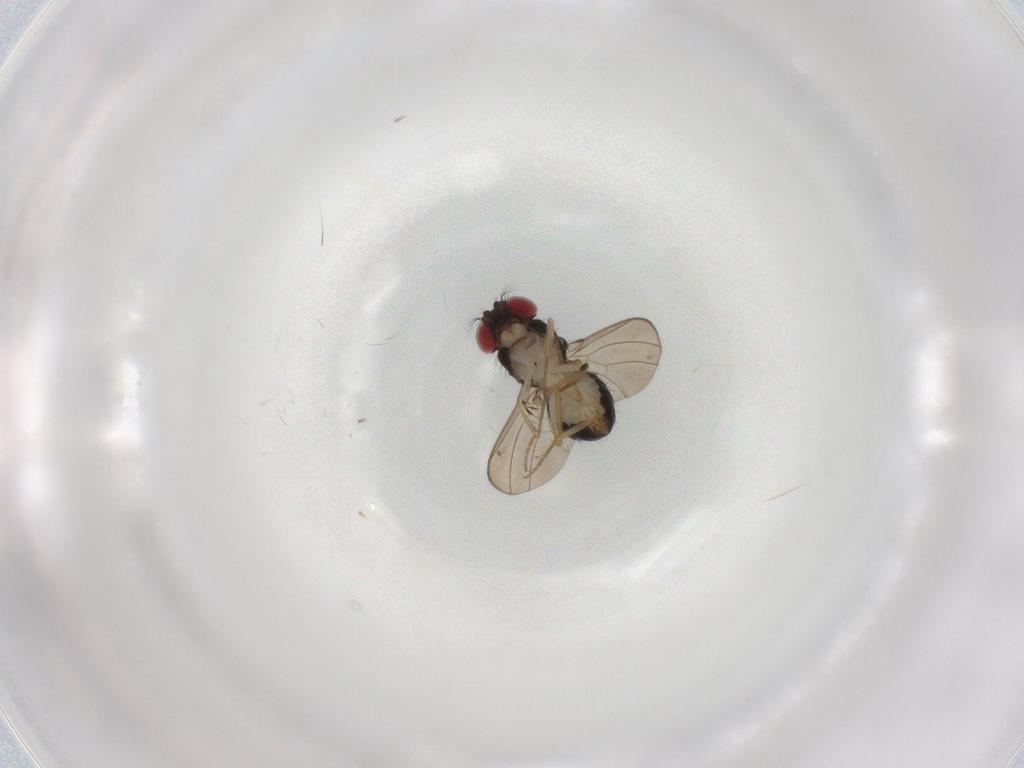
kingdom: Animalia
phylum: Arthropoda
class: Insecta
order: Diptera
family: Drosophilidae
